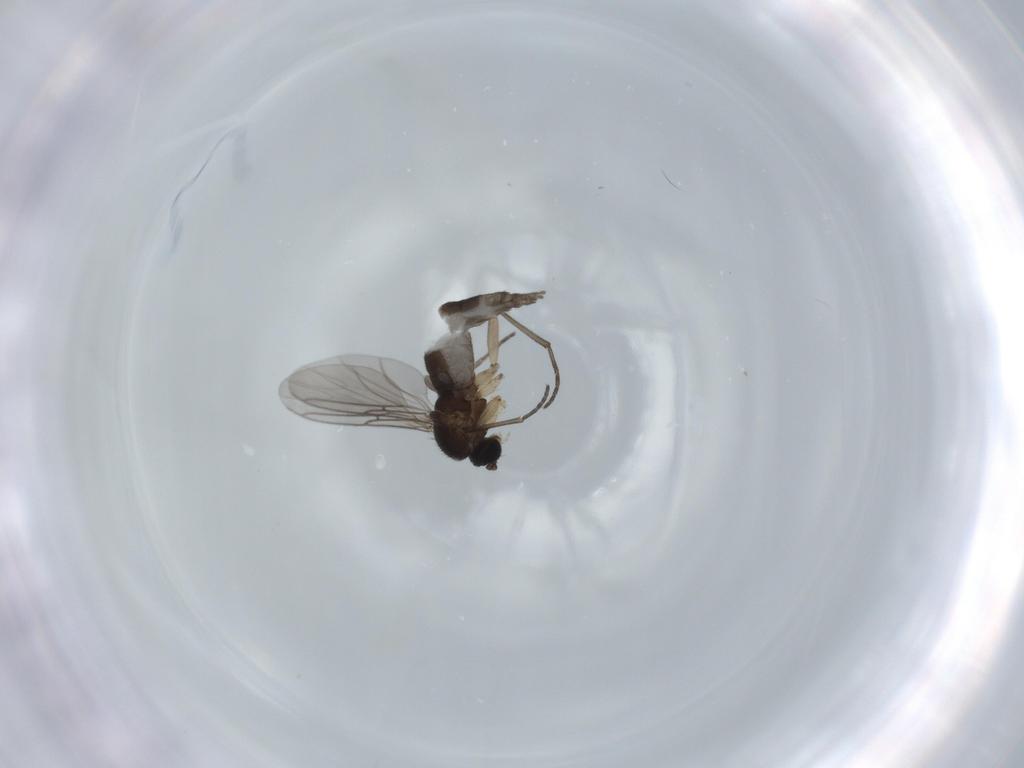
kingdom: Animalia
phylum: Arthropoda
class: Insecta
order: Diptera
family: Sciaridae
